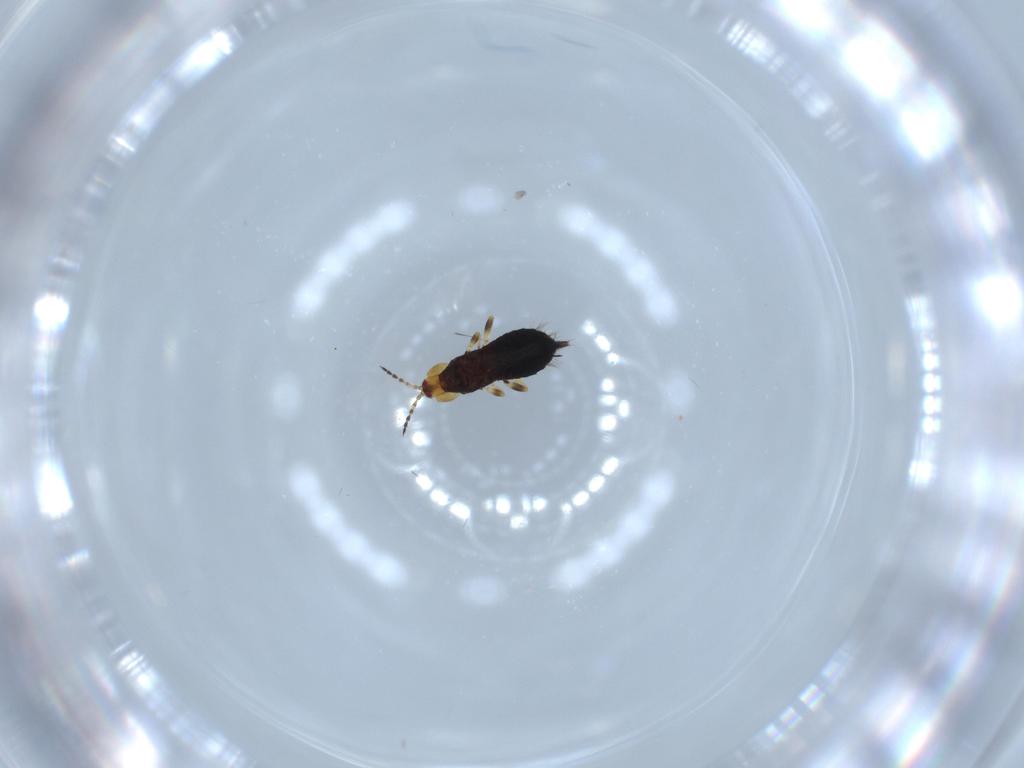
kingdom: Animalia
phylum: Arthropoda
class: Insecta
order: Thysanoptera
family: Phlaeothripidae
